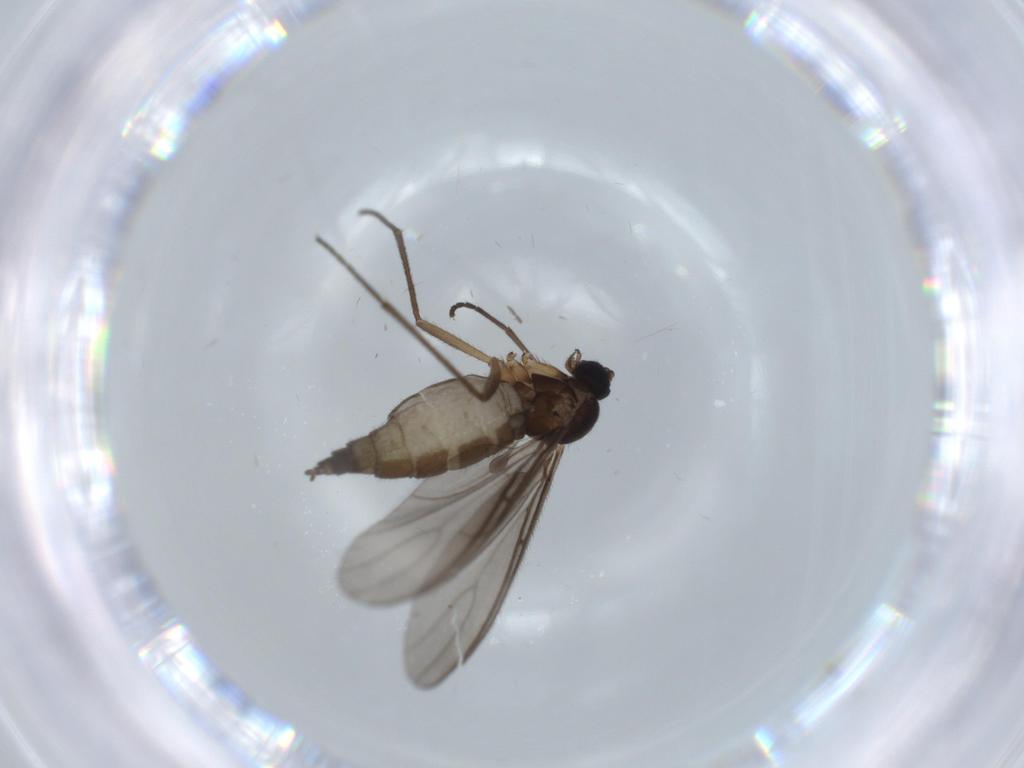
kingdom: Animalia
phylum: Arthropoda
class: Insecta
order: Diptera
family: Sciaridae
